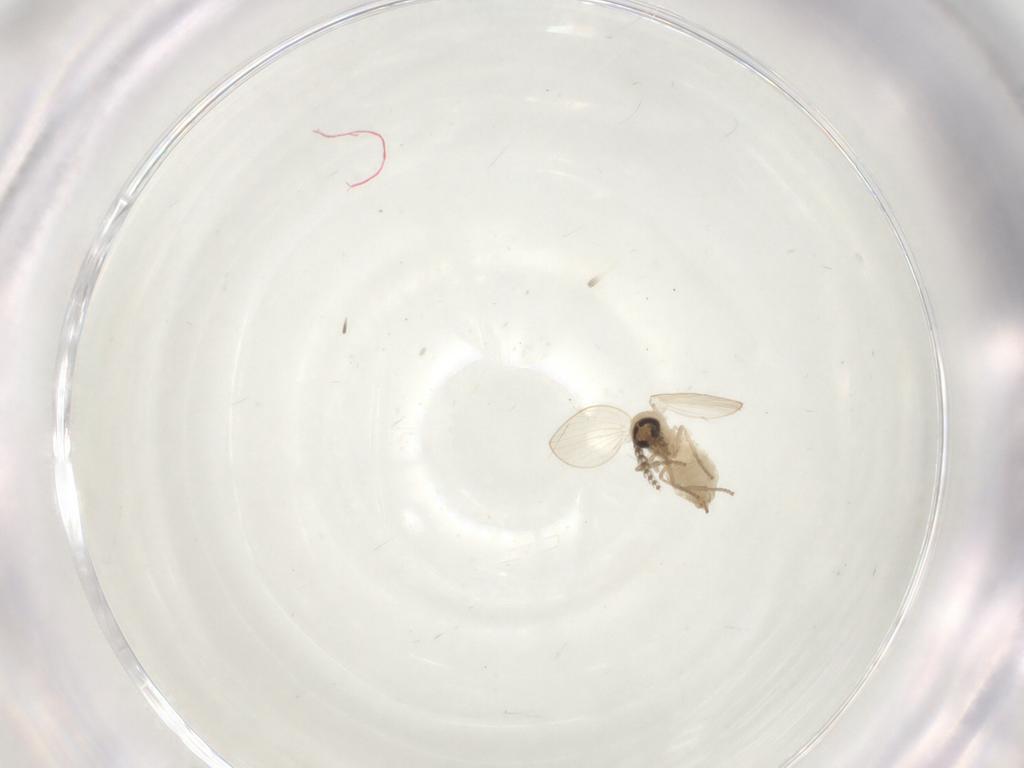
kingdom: Animalia
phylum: Arthropoda
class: Insecta
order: Diptera
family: Psychodidae
